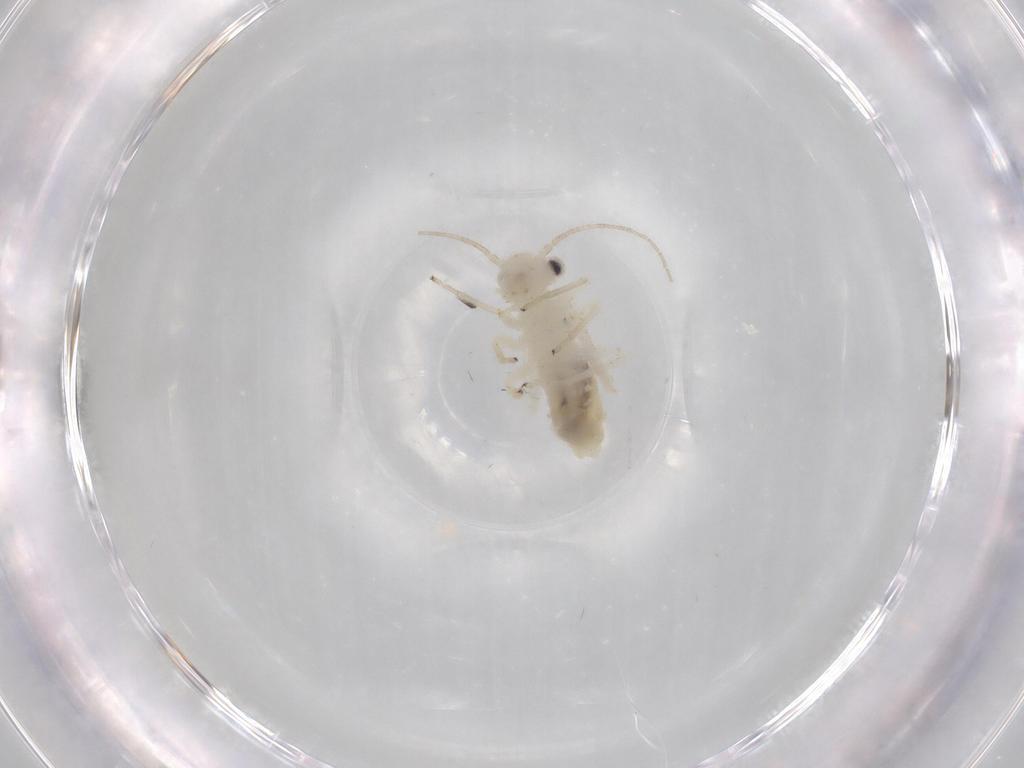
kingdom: Animalia
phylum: Arthropoda
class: Insecta
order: Psocodea
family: Caeciliusidae
